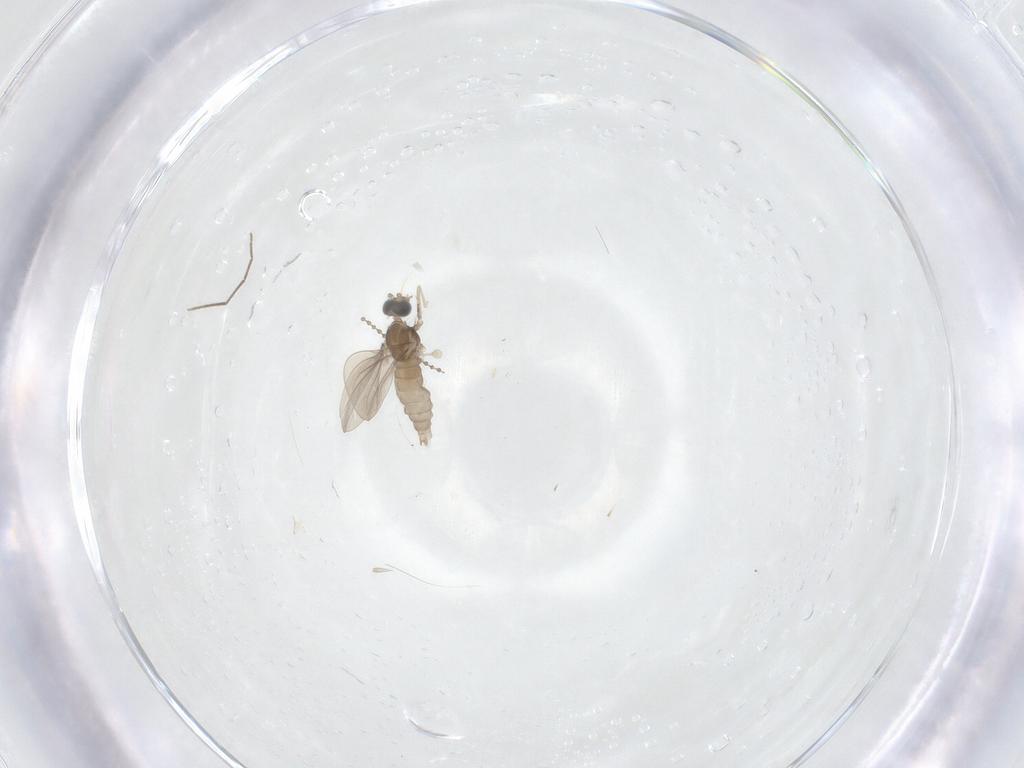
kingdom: Animalia
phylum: Arthropoda
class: Insecta
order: Diptera
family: Cecidomyiidae
